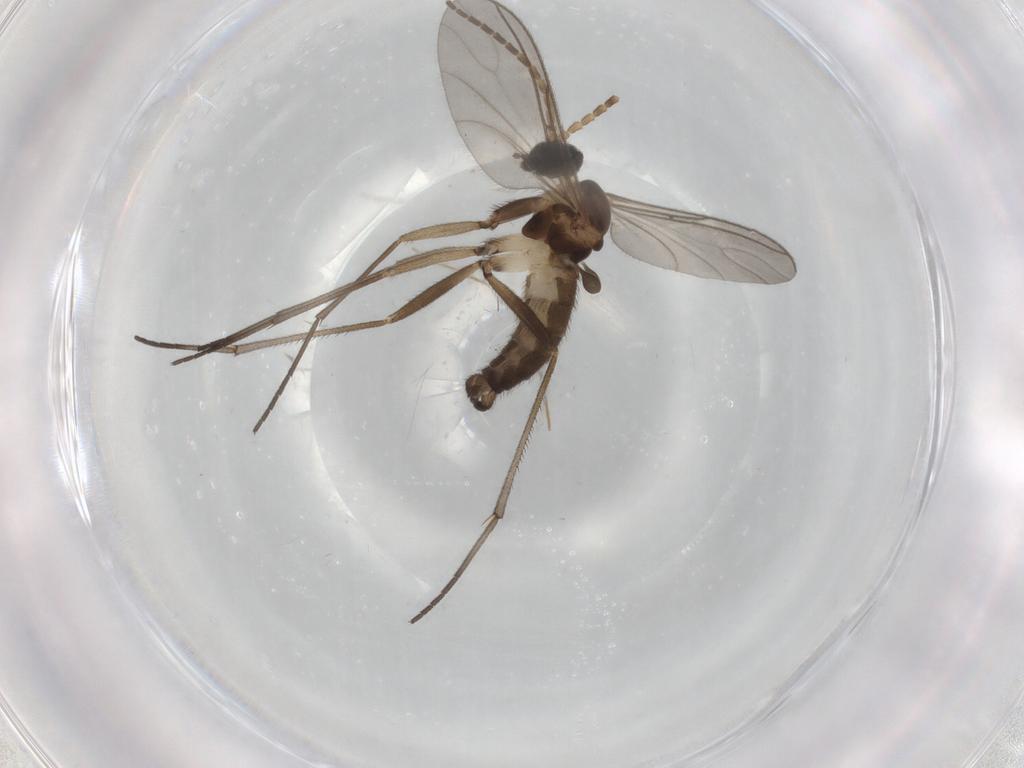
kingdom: Animalia
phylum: Arthropoda
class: Insecta
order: Diptera
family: Sciaridae
